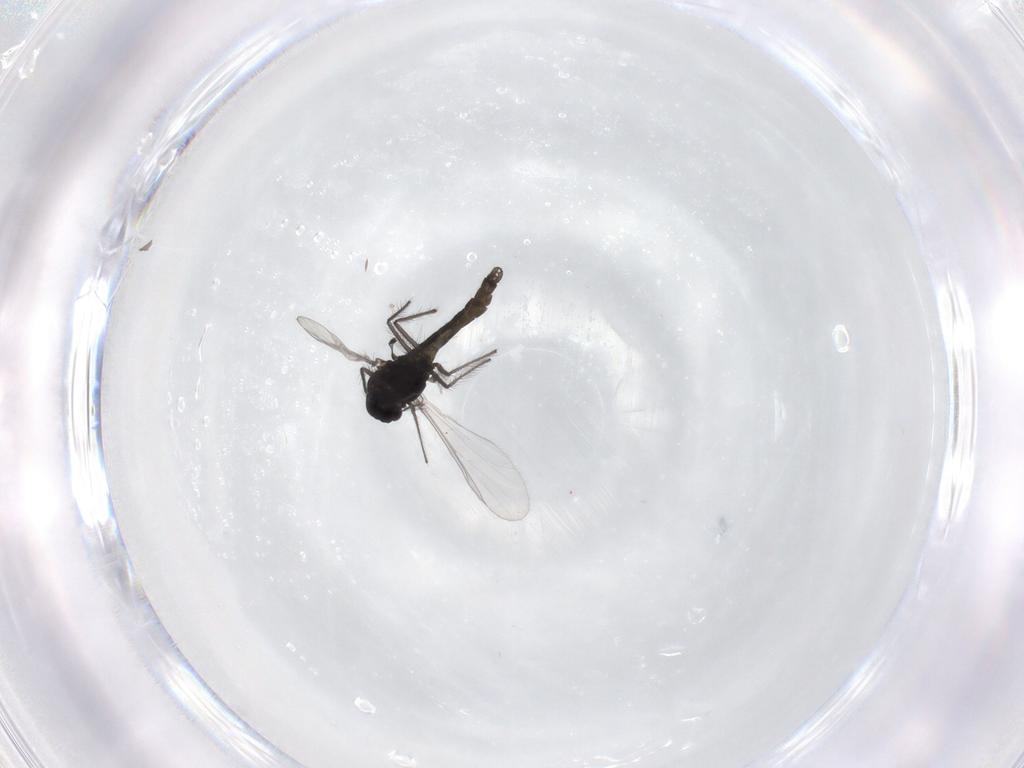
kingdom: Animalia
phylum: Arthropoda
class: Insecta
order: Diptera
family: Chironomidae
